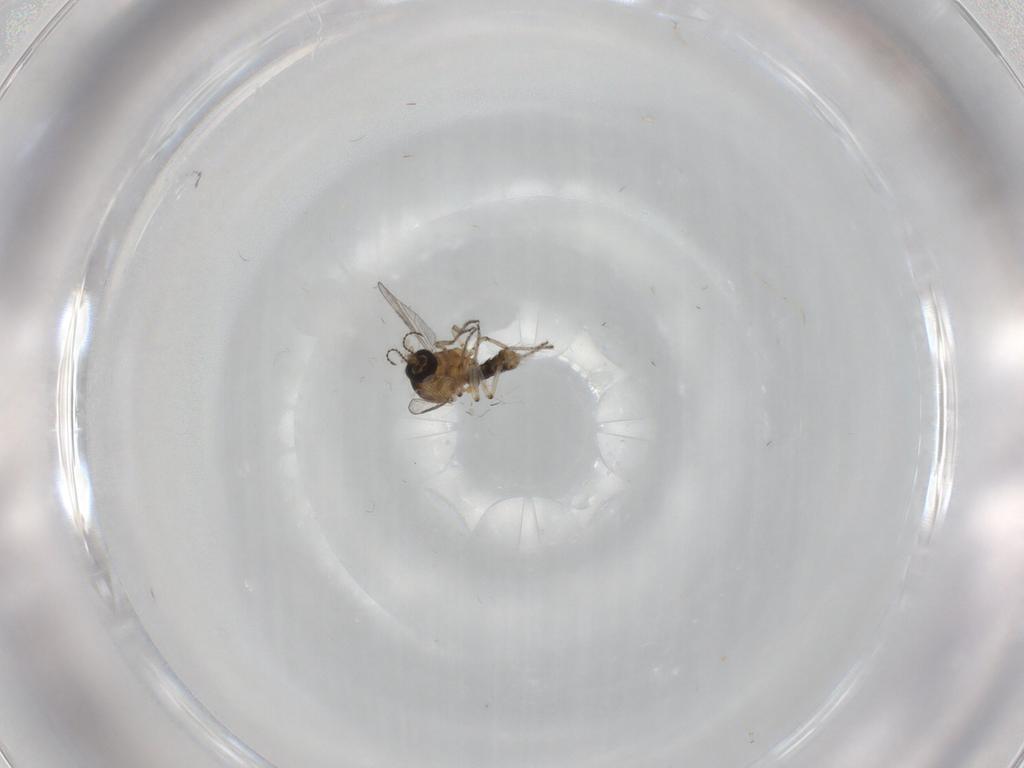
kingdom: Animalia
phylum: Arthropoda
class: Insecta
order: Diptera
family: Ceratopogonidae
